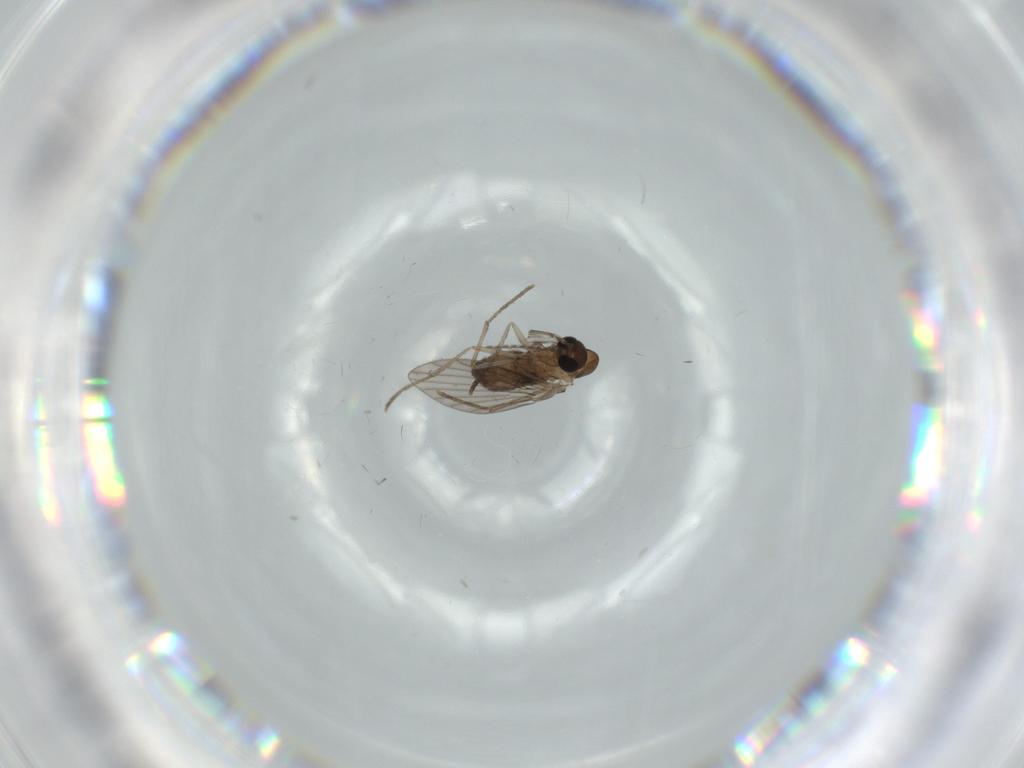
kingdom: Animalia
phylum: Arthropoda
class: Insecta
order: Diptera
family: Psychodidae
